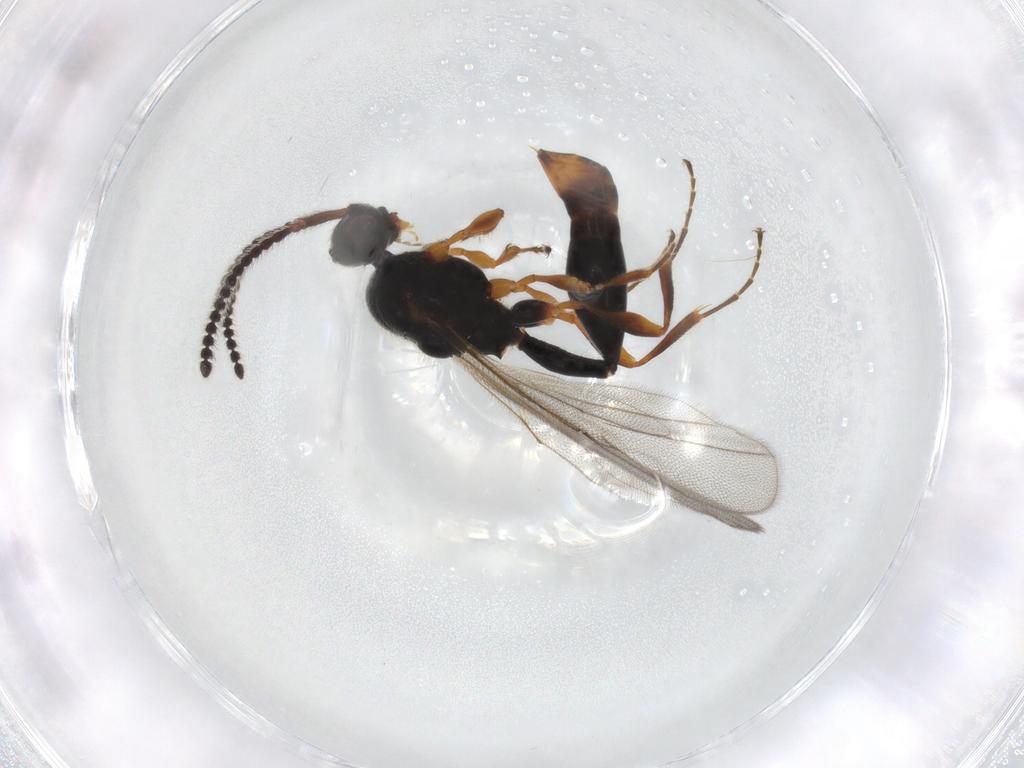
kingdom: Animalia
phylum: Arthropoda
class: Insecta
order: Hymenoptera
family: Diapriidae
